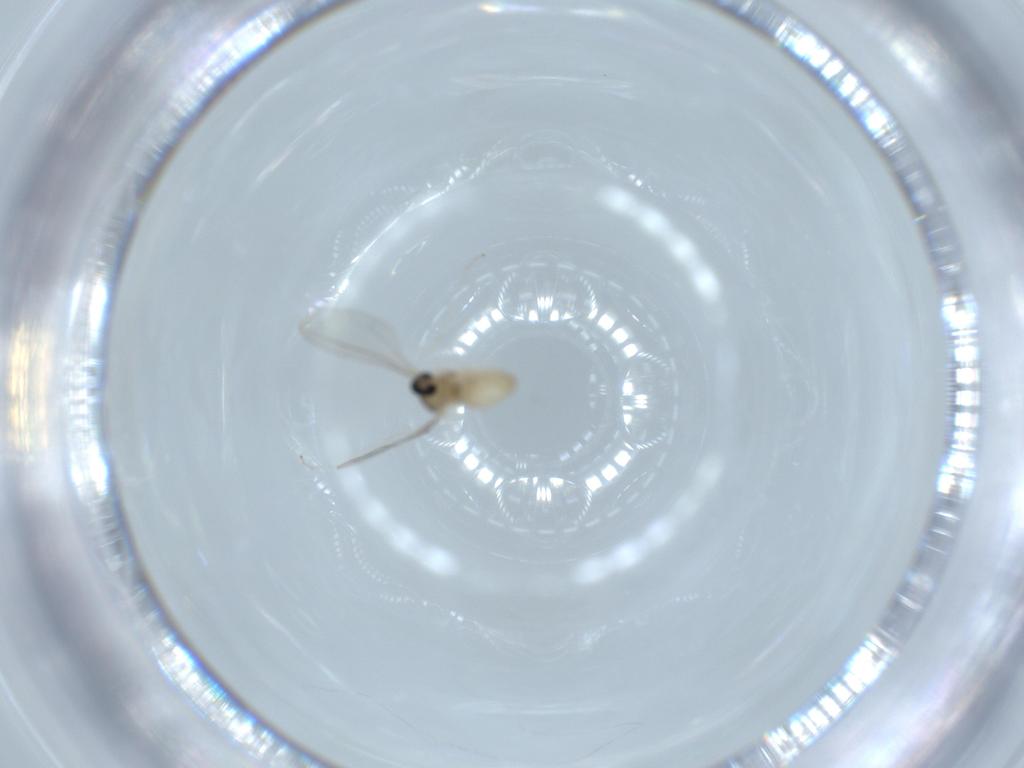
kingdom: Animalia
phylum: Arthropoda
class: Insecta
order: Diptera
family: Cecidomyiidae
